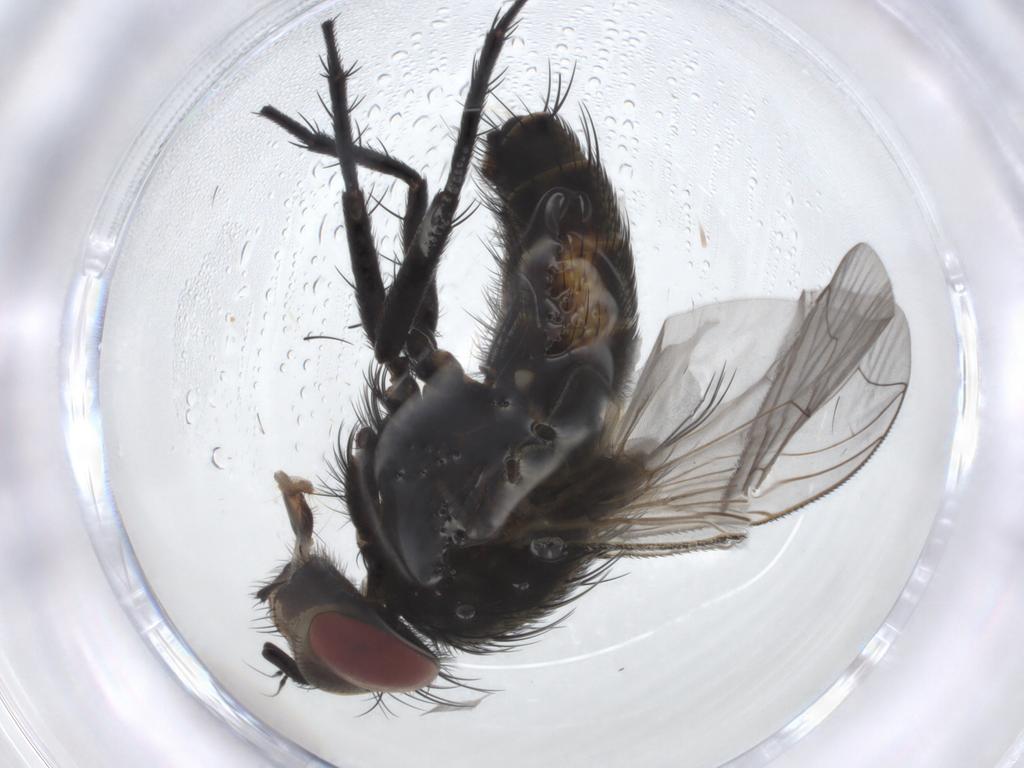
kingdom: Animalia
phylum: Arthropoda
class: Insecta
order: Diptera
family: Sarcophagidae
